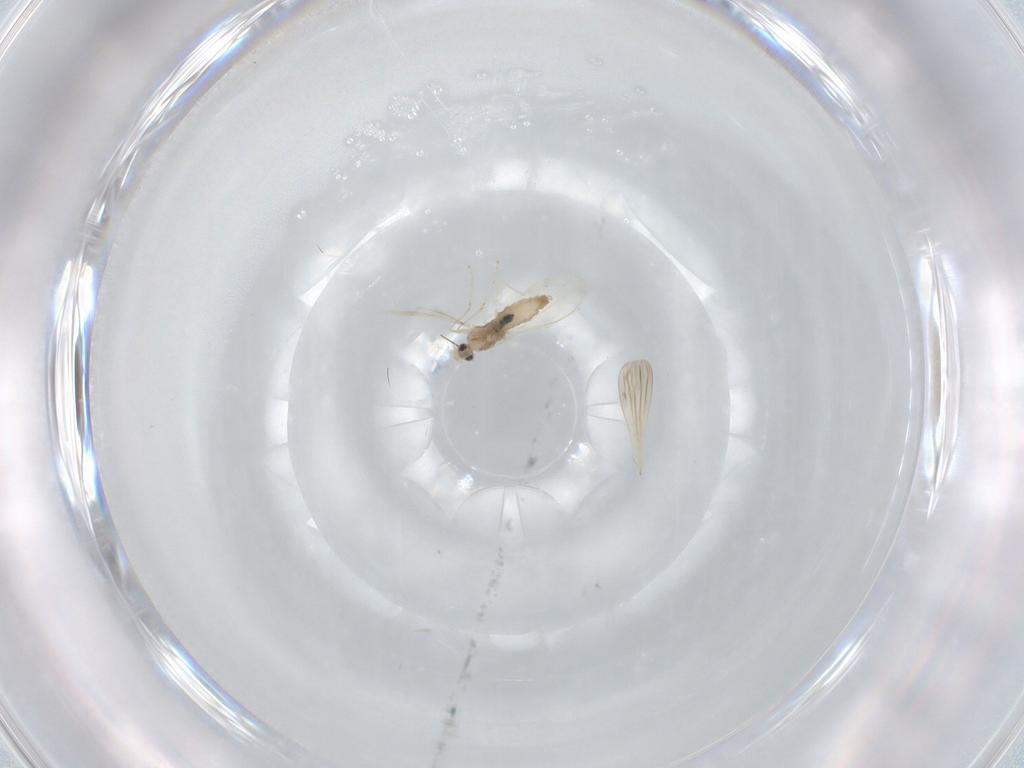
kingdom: Animalia
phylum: Arthropoda
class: Insecta
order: Diptera
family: Cecidomyiidae
